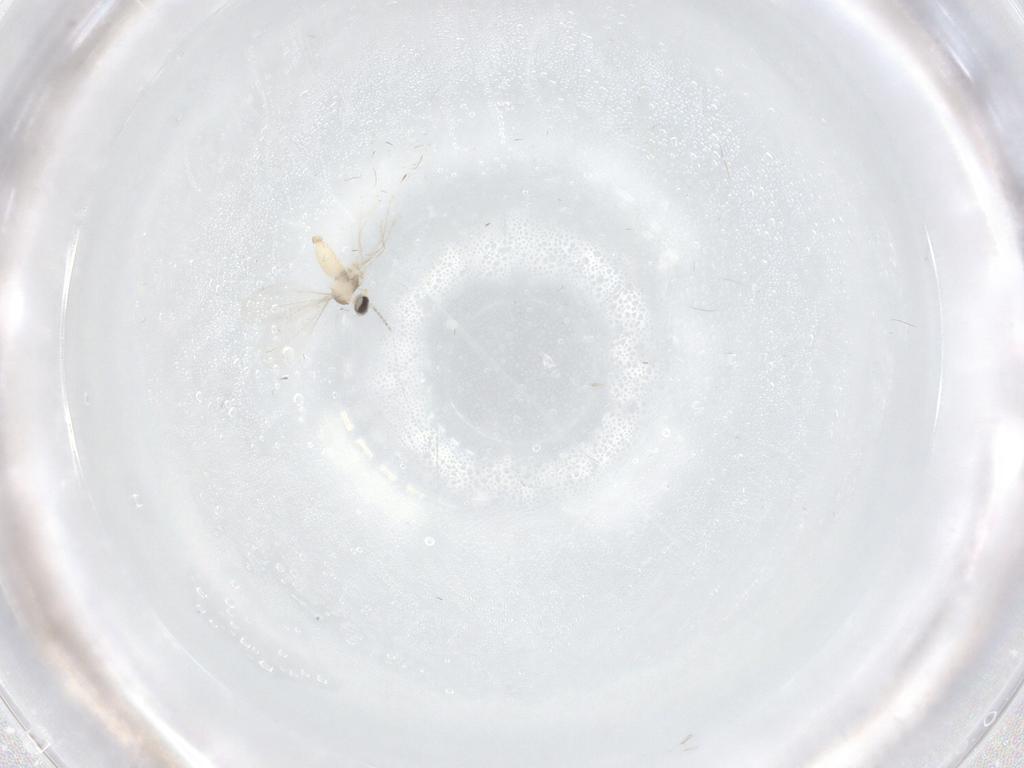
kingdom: Animalia
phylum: Arthropoda
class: Insecta
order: Diptera
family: Cecidomyiidae
